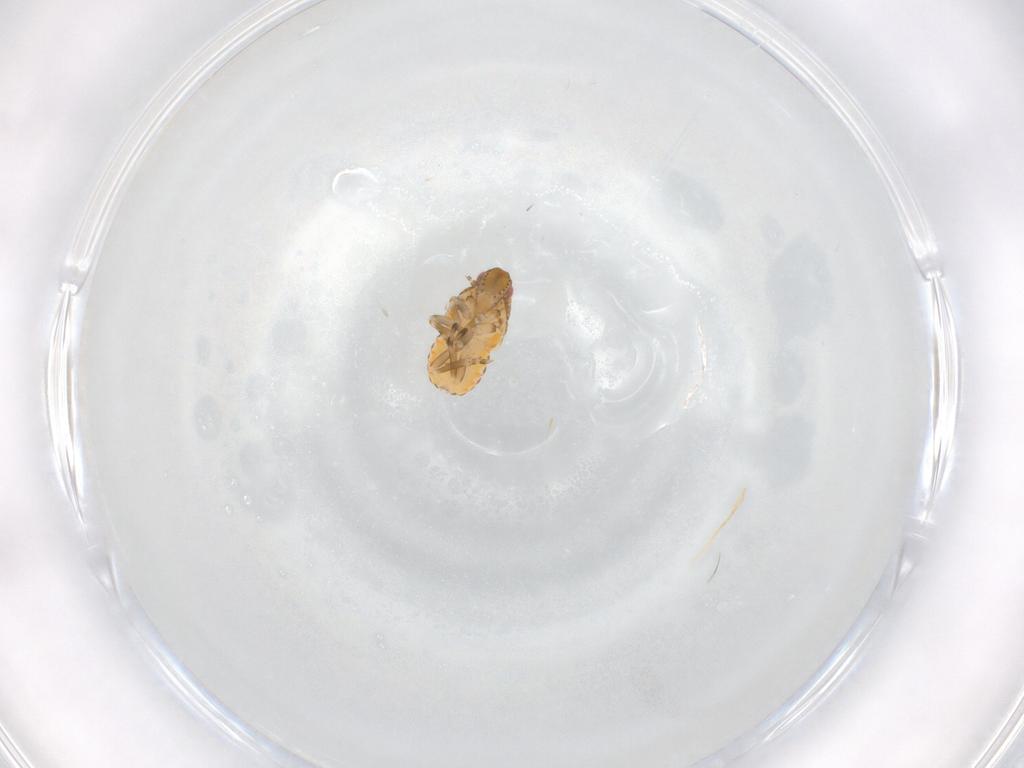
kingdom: Animalia
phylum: Arthropoda
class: Insecta
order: Hemiptera
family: Flatidae
